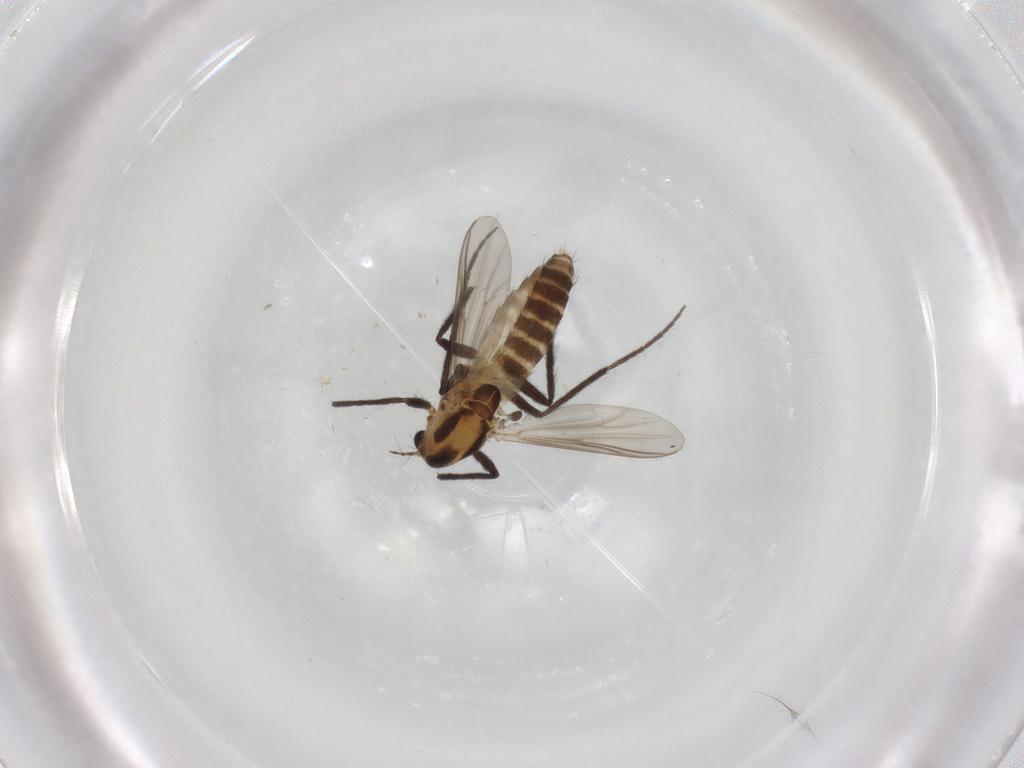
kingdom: Animalia
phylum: Arthropoda
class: Insecta
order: Diptera
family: Chironomidae
